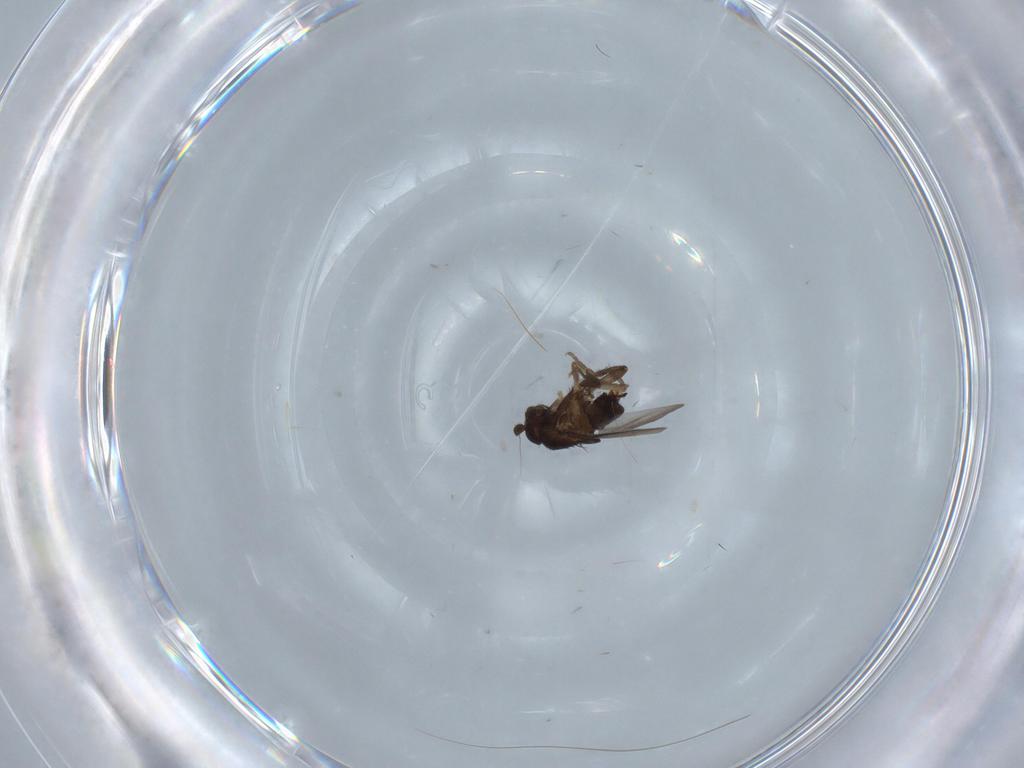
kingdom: Animalia
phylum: Arthropoda
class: Insecta
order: Diptera
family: Sphaeroceridae
